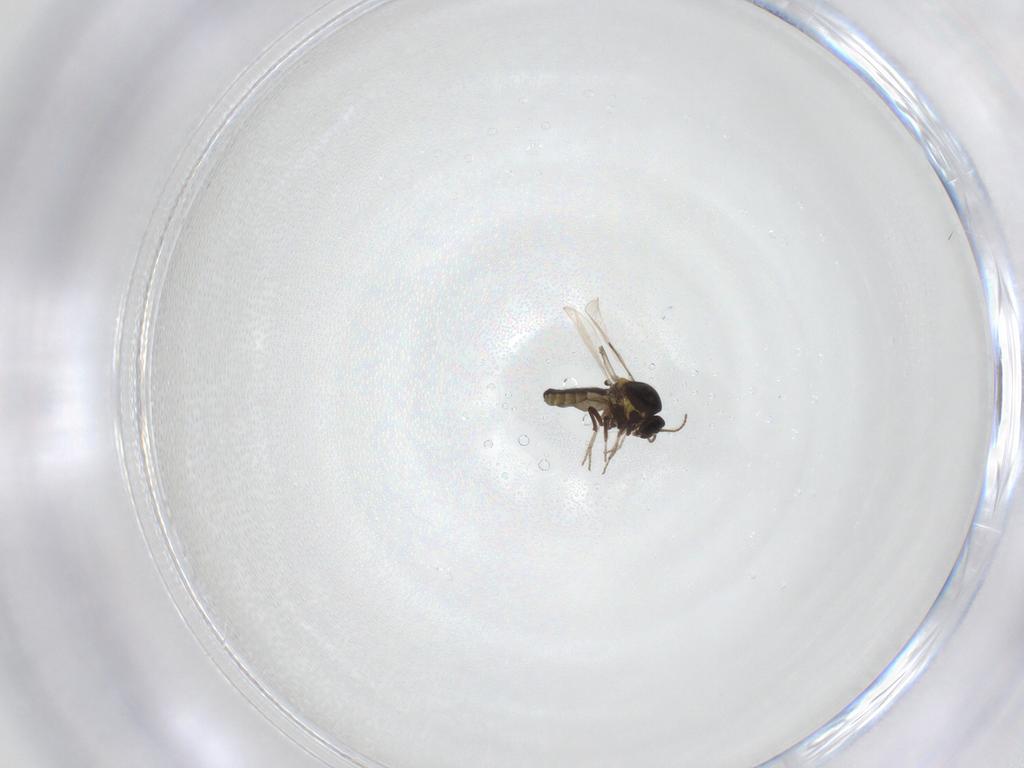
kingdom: Animalia
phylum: Arthropoda
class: Insecta
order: Diptera
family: Ceratopogonidae
